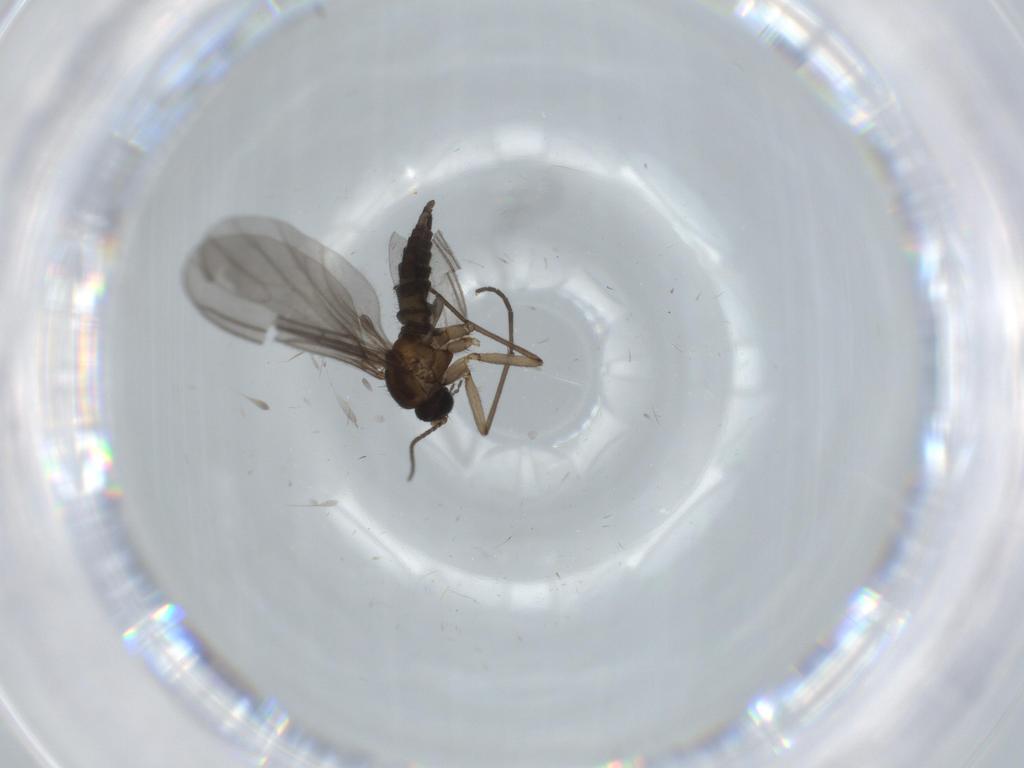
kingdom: Animalia
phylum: Arthropoda
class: Insecta
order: Diptera
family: Sciaridae
